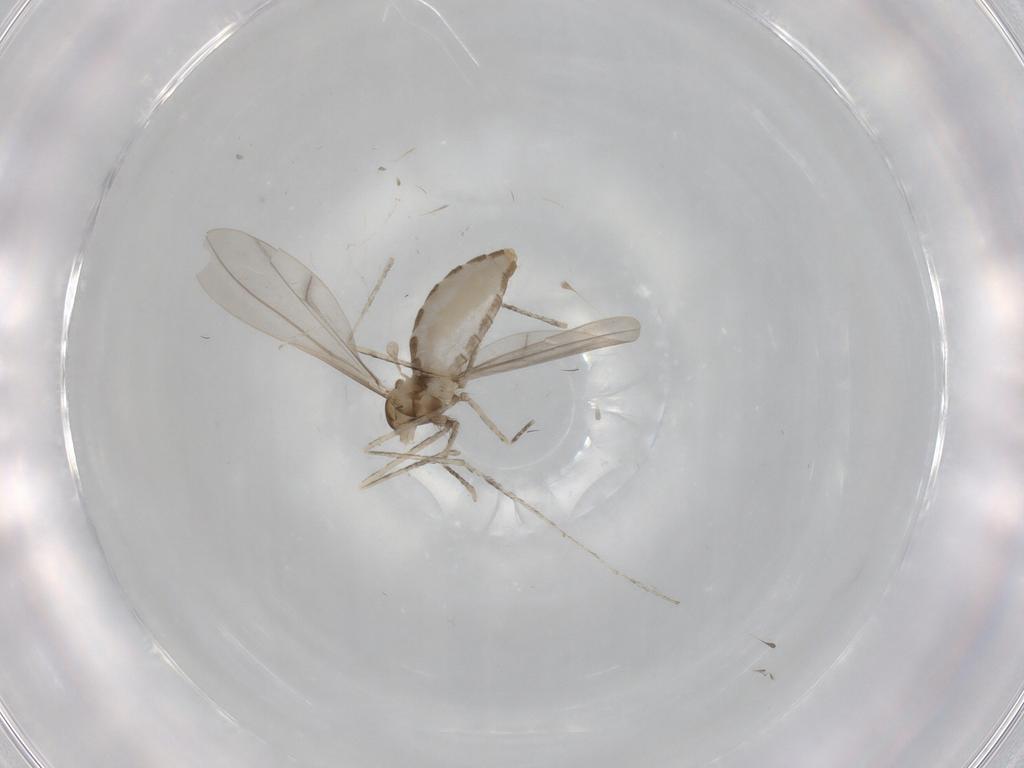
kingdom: Animalia
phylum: Arthropoda
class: Insecta
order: Diptera
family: Cecidomyiidae
